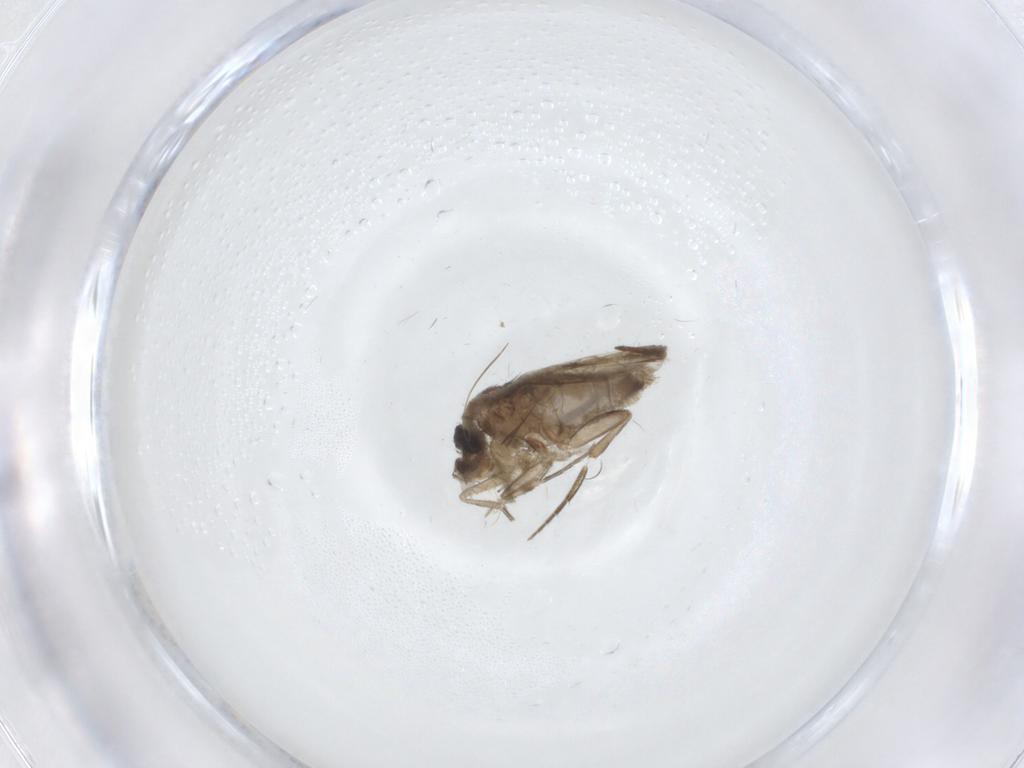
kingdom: Animalia
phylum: Arthropoda
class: Insecta
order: Diptera
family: Phoridae
